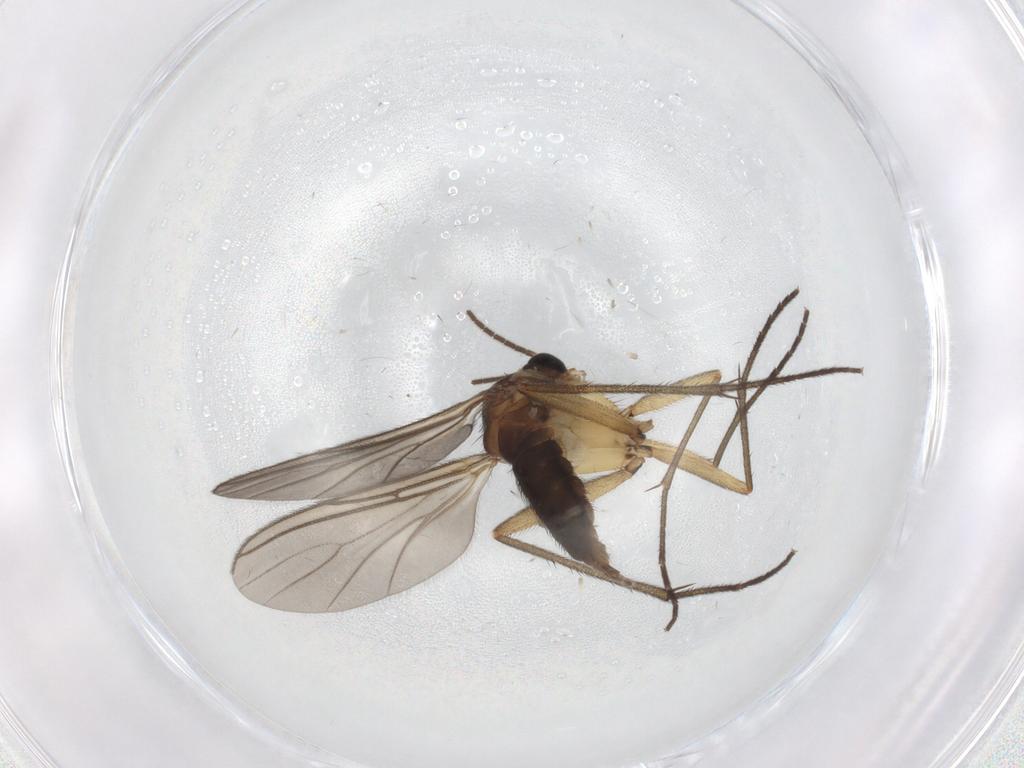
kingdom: Animalia
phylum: Arthropoda
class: Insecta
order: Diptera
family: Sciaridae
